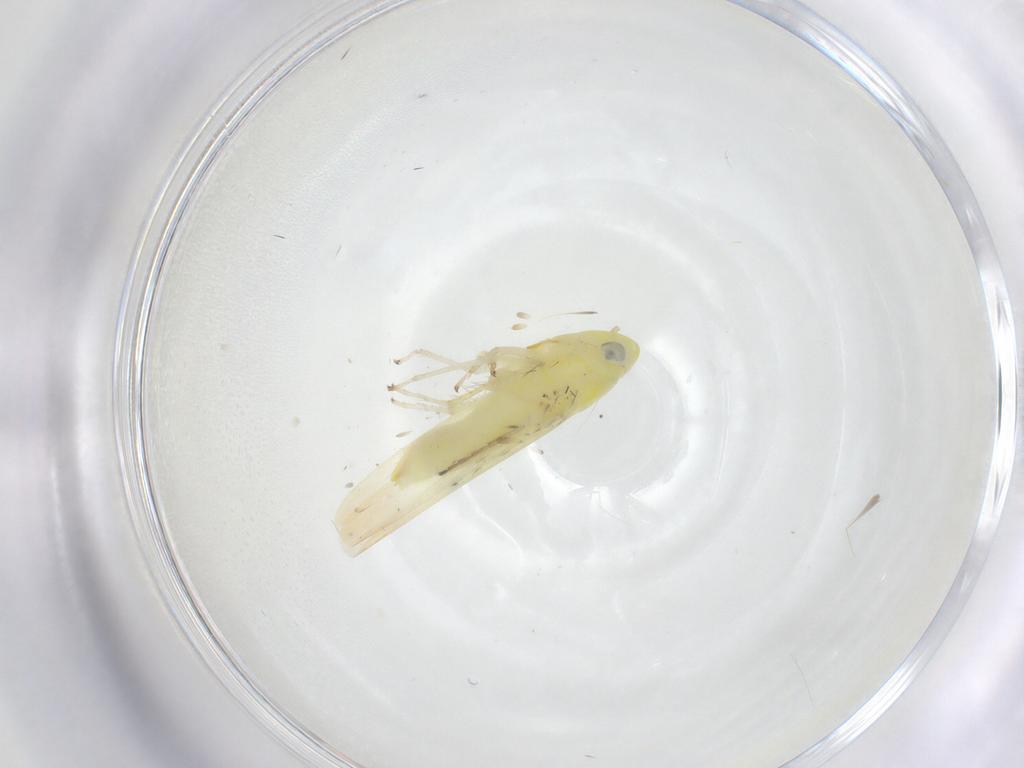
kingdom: Animalia
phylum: Arthropoda
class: Insecta
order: Hemiptera
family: Cicadellidae
